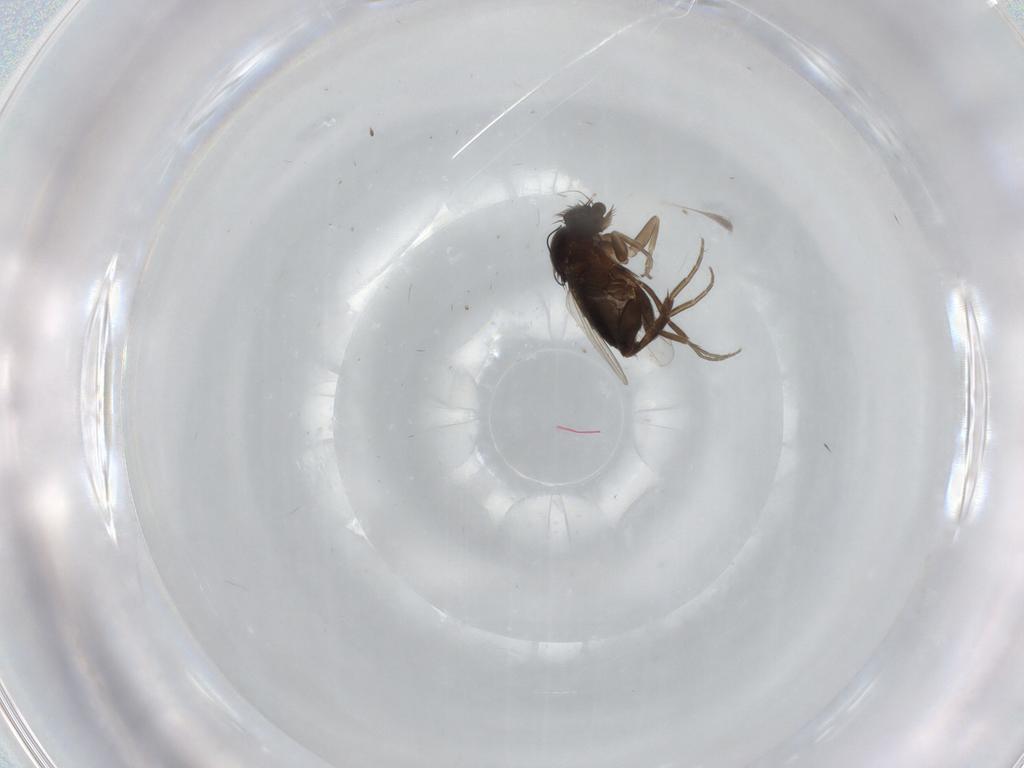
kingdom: Animalia
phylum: Arthropoda
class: Insecta
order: Diptera
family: Phoridae
